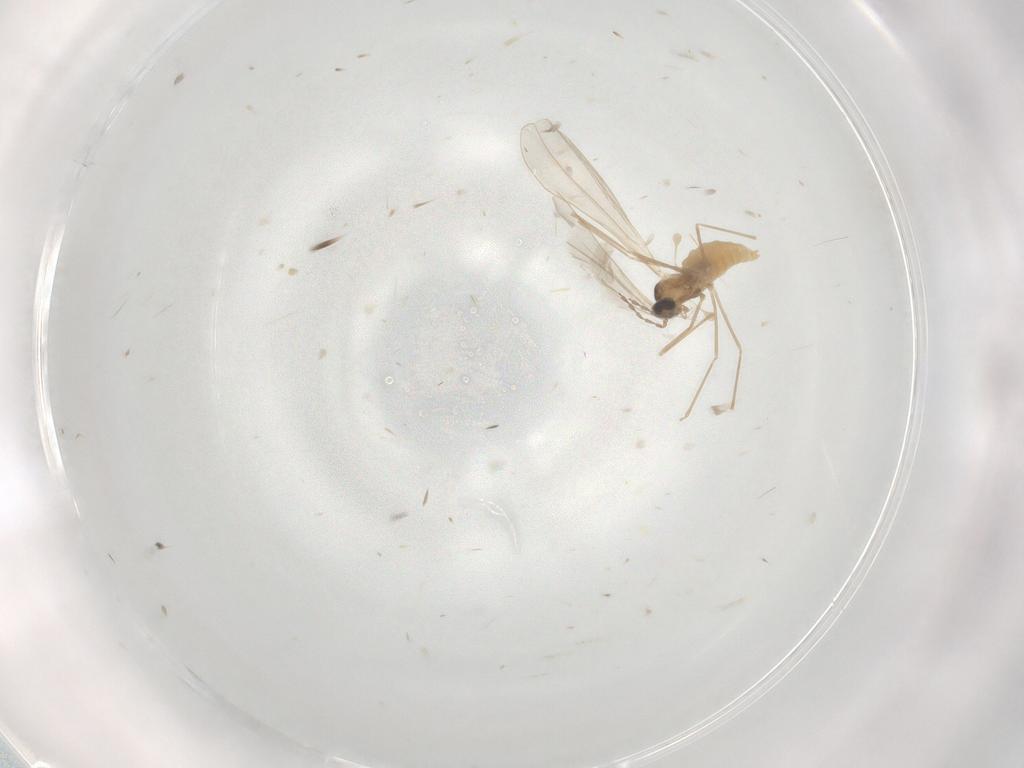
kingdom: Animalia
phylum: Arthropoda
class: Insecta
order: Diptera
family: Cecidomyiidae
